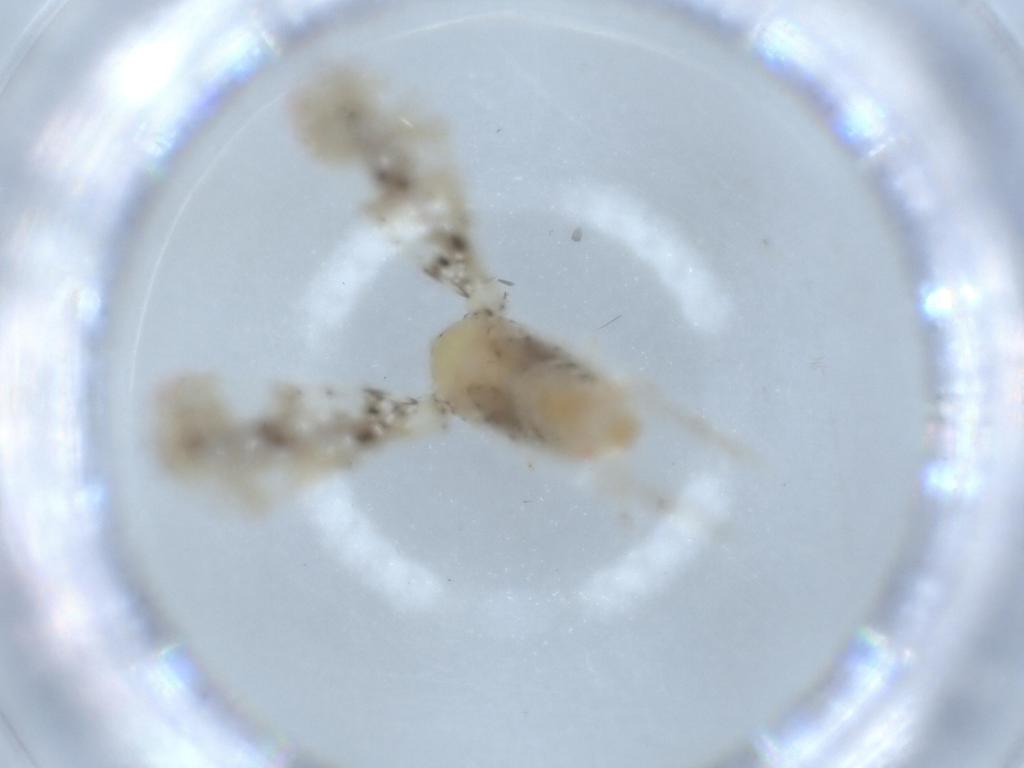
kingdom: Animalia
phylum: Arthropoda
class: Insecta
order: Hemiptera
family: Derbidae
